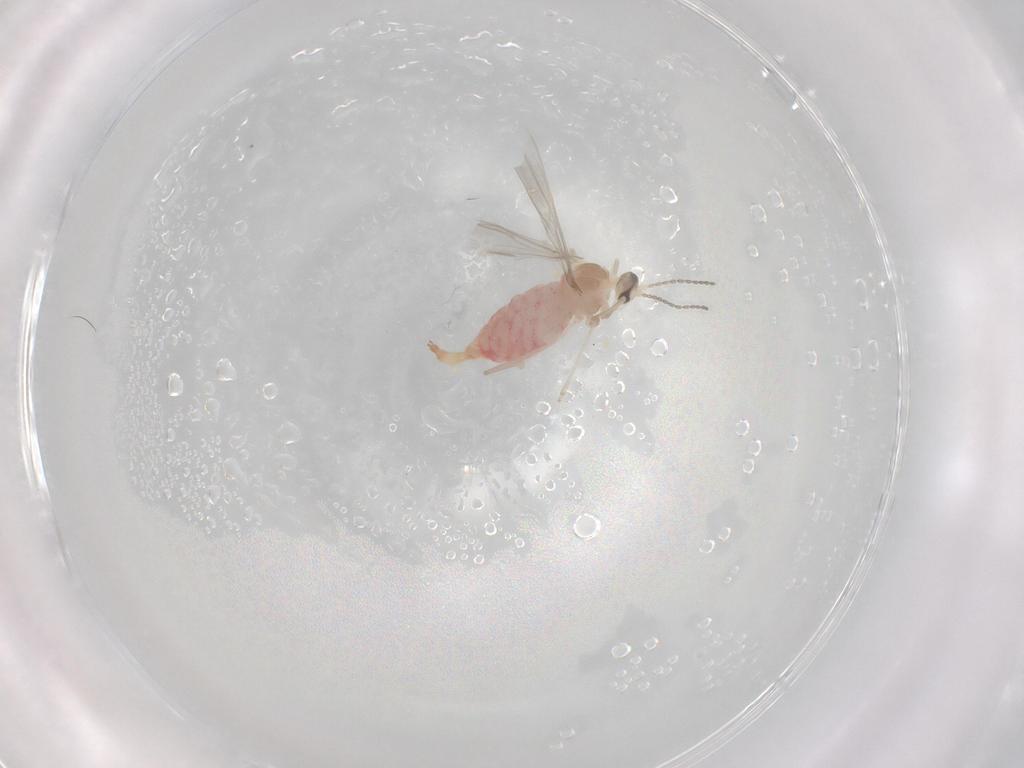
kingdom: Animalia
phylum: Arthropoda
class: Insecta
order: Diptera
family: Cecidomyiidae
